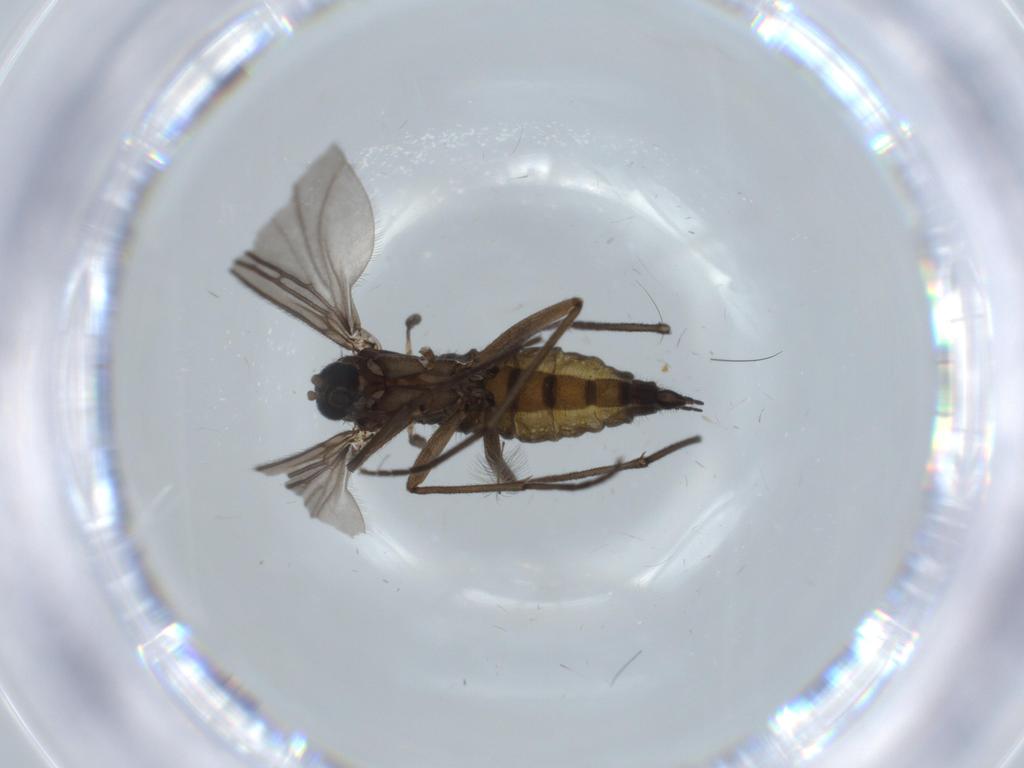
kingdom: Animalia
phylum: Arthropoda
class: Insecta
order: Diptera
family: Sciaridae
